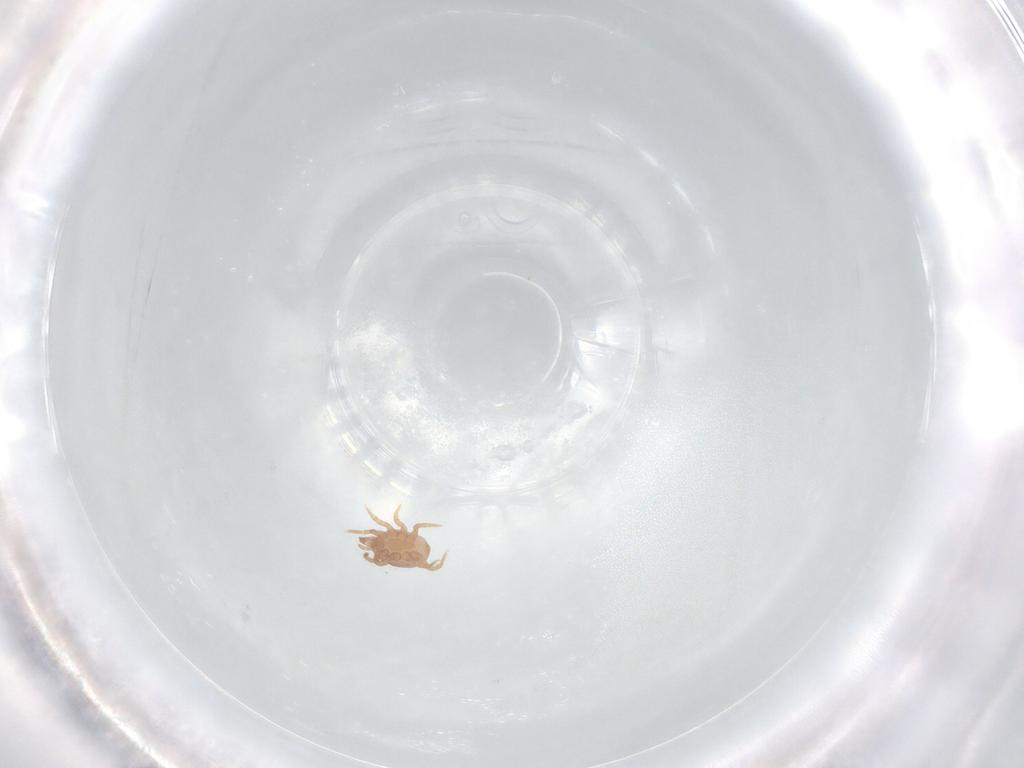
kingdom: Animalia
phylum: Arthropoda
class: Arachnida
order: Mesostigmata
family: Eviphididae
